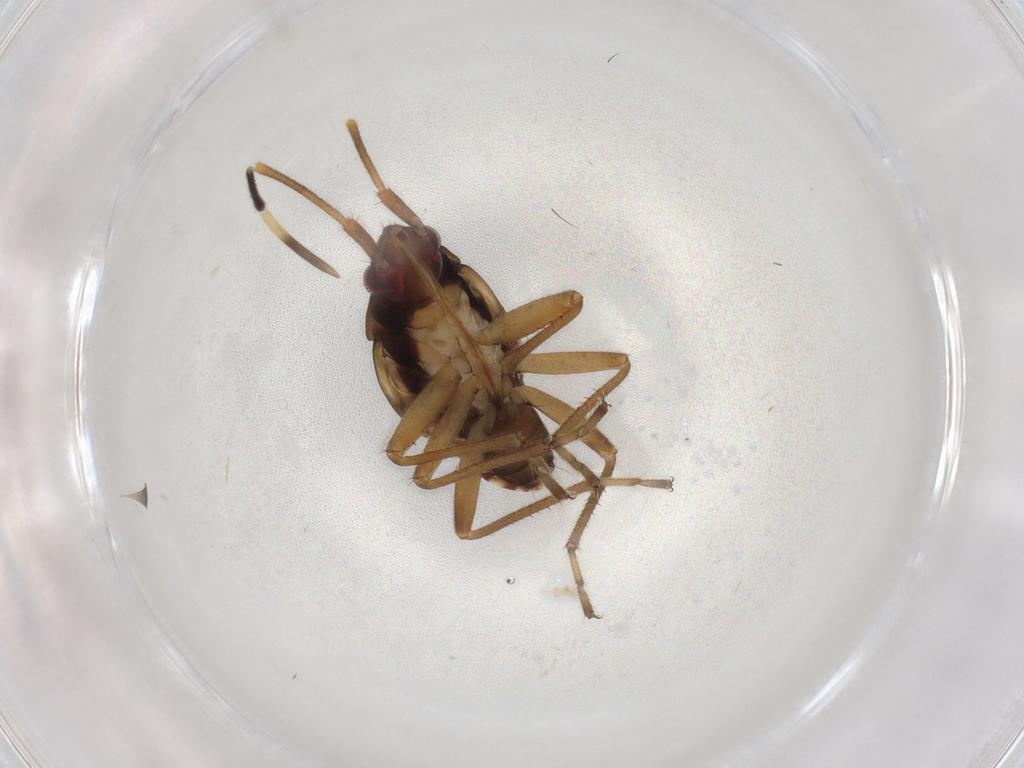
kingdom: Animalia
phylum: Arthropoda
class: Insecta
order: Hemiptera
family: Rhyparochromidae
